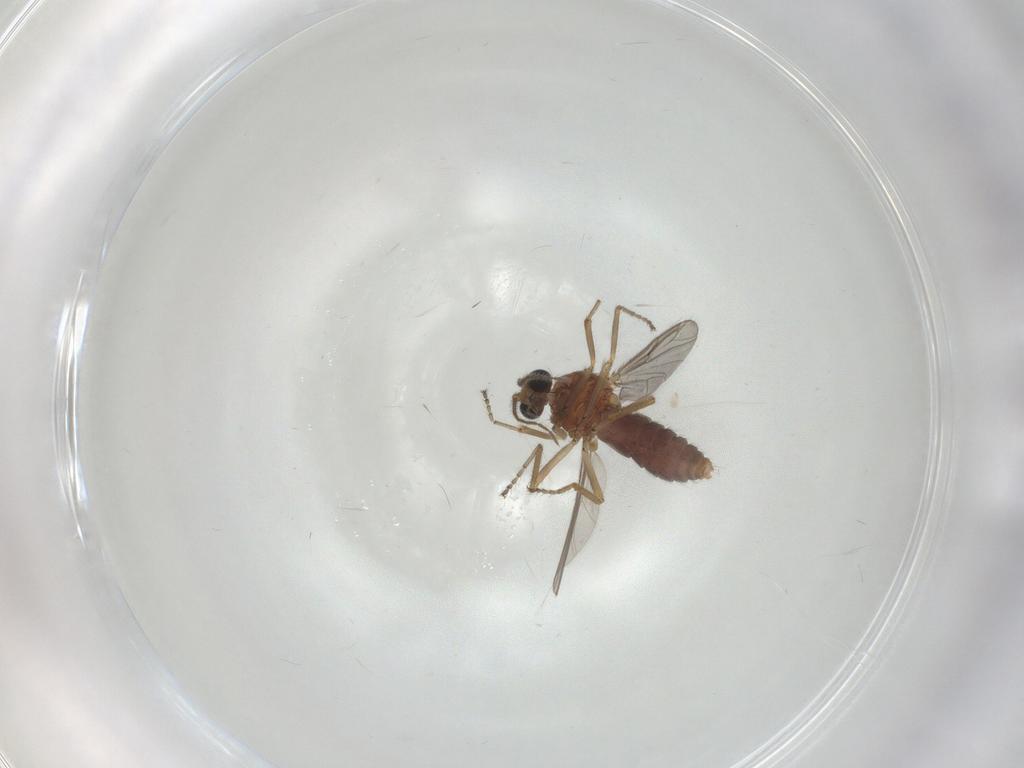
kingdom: Animalia
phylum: Arthropoda
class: Insecta
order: Diptera
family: Ceratopogonidae
